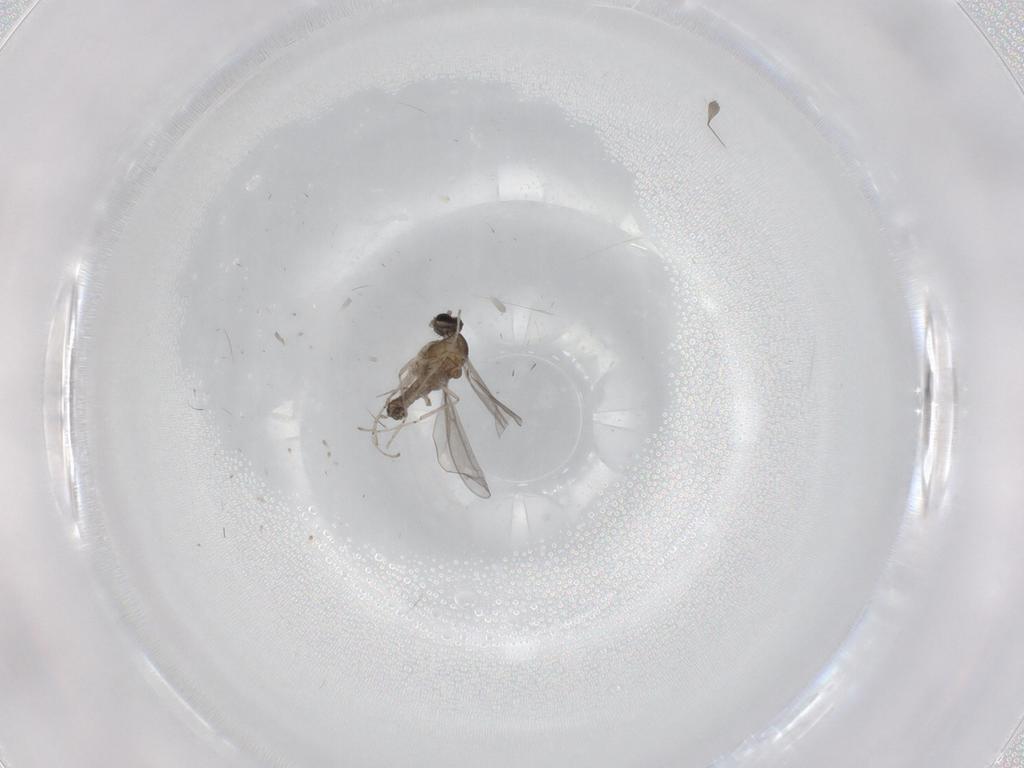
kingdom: Animalia
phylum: Arthropoda
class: Insecta
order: Diptera
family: Cecidomyiidae
